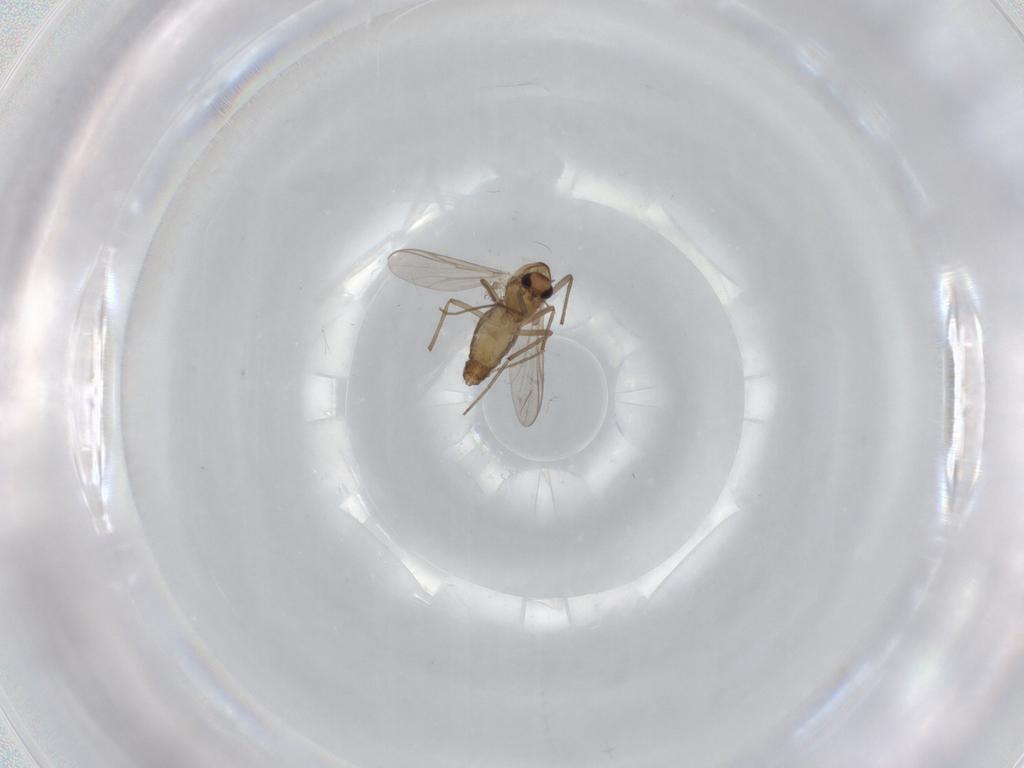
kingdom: Animalia
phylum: Arthropoda
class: Insecta
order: Diptera
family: Chironomidae
